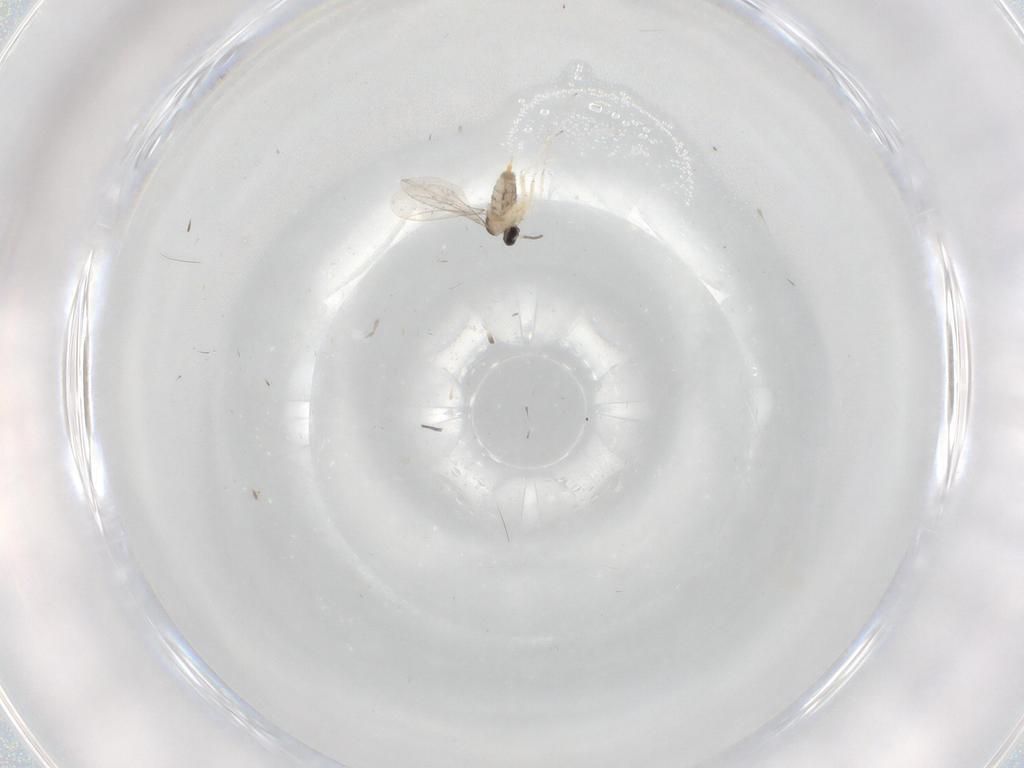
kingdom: Animalia
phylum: Arthropoda
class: Insecta
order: Diptera
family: Cecidomyiidae
